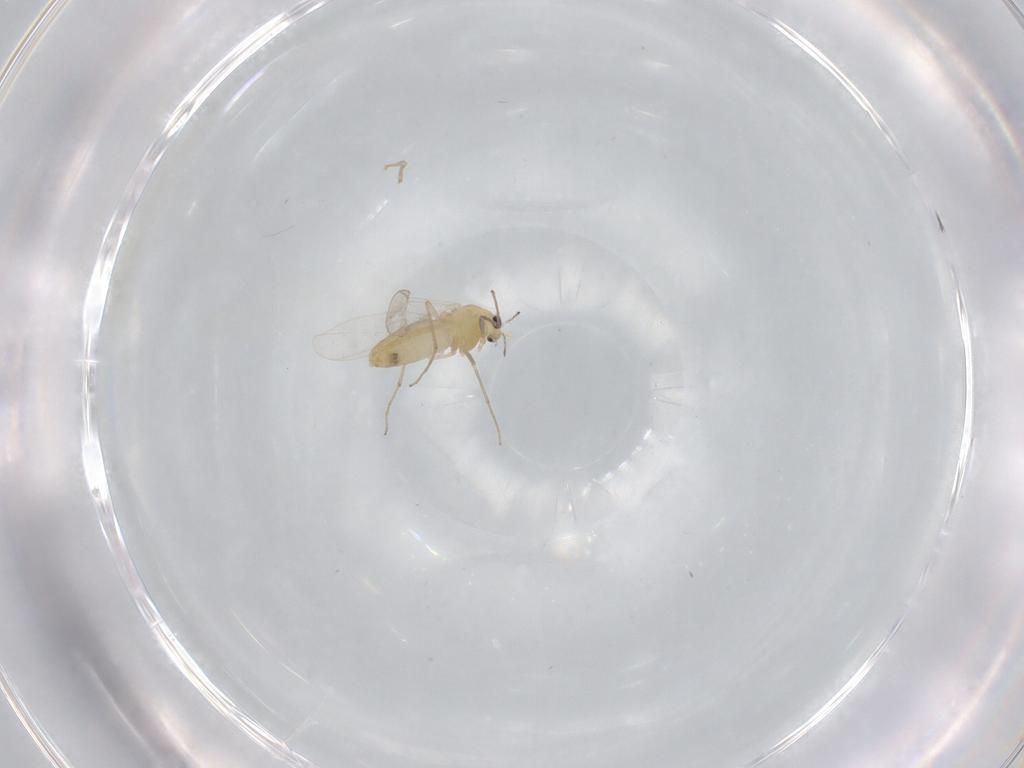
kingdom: Animalia
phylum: Arthropoda
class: Insecta
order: Diptera
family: Chironomidae
